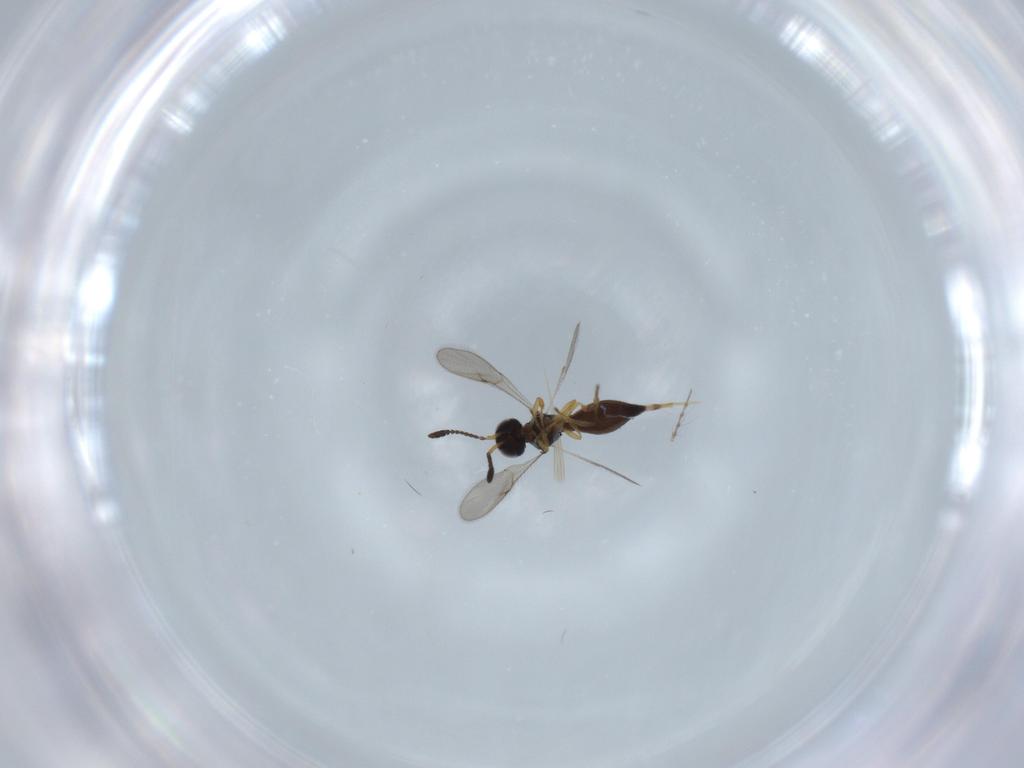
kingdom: Animalia
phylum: Arthropoda
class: Insecta
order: Hymenoptera
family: Scelionidae
